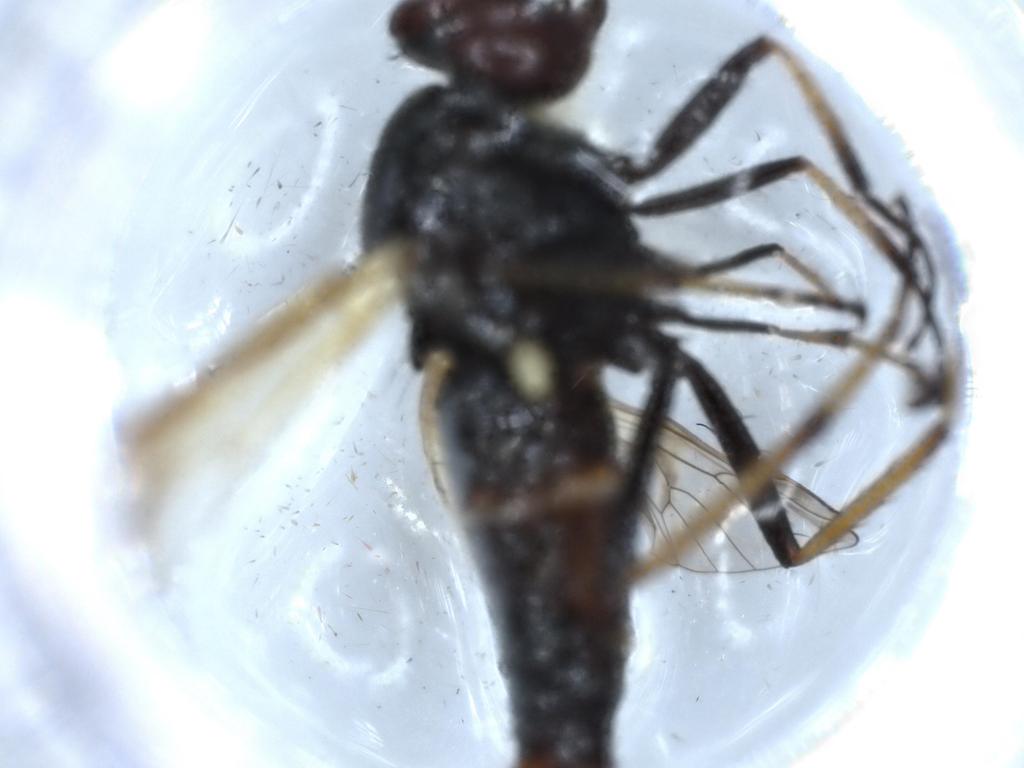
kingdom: Animalia
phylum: Arthropoda
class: Insecta
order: Diptera
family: Therevidae
